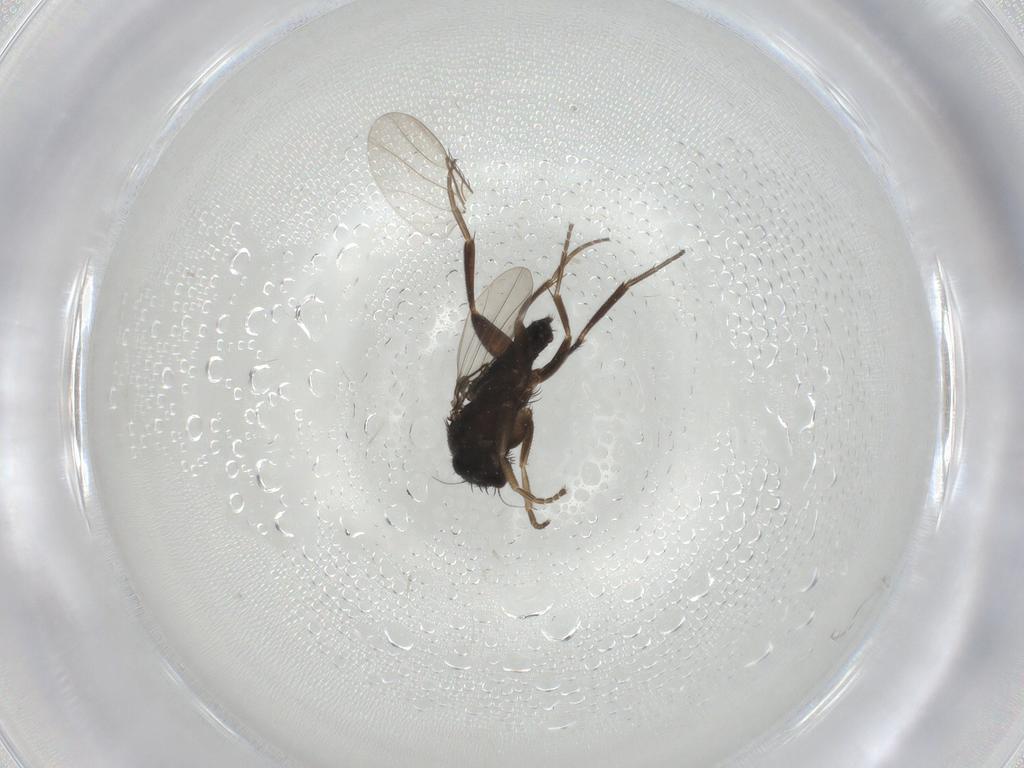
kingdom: Animalia
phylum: Arthropoda
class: Insecta
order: Diptera
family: Phoridae
